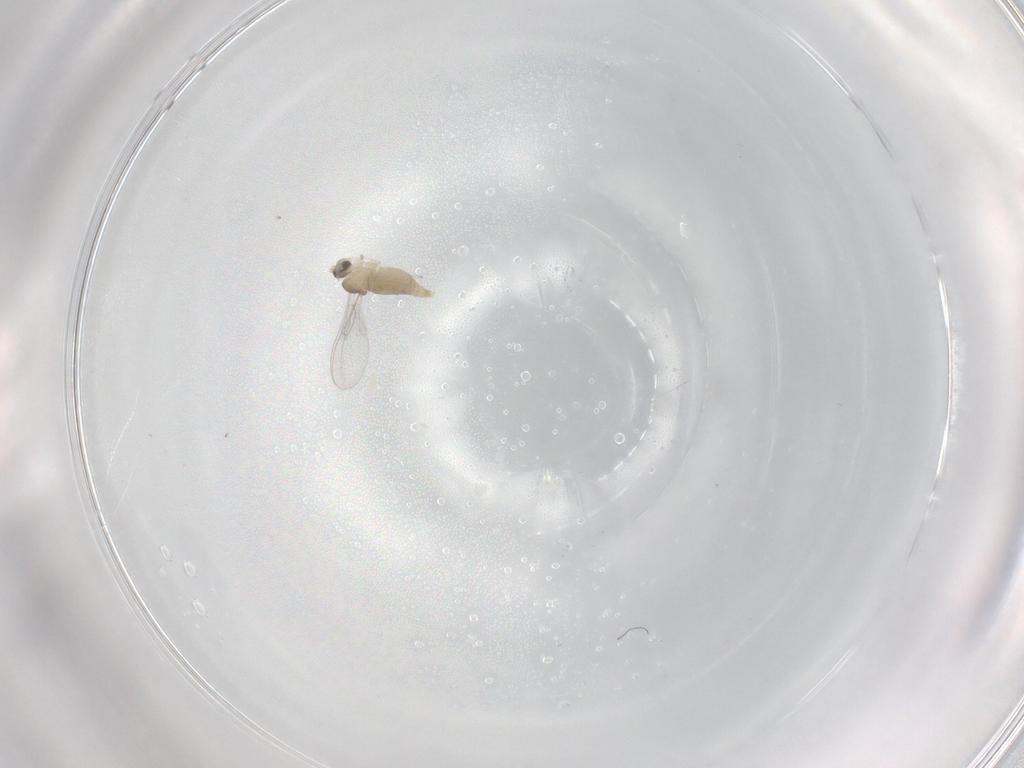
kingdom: Animalia
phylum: Arthropoda
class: Insecta
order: Diptera
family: Cecidomyiidae
